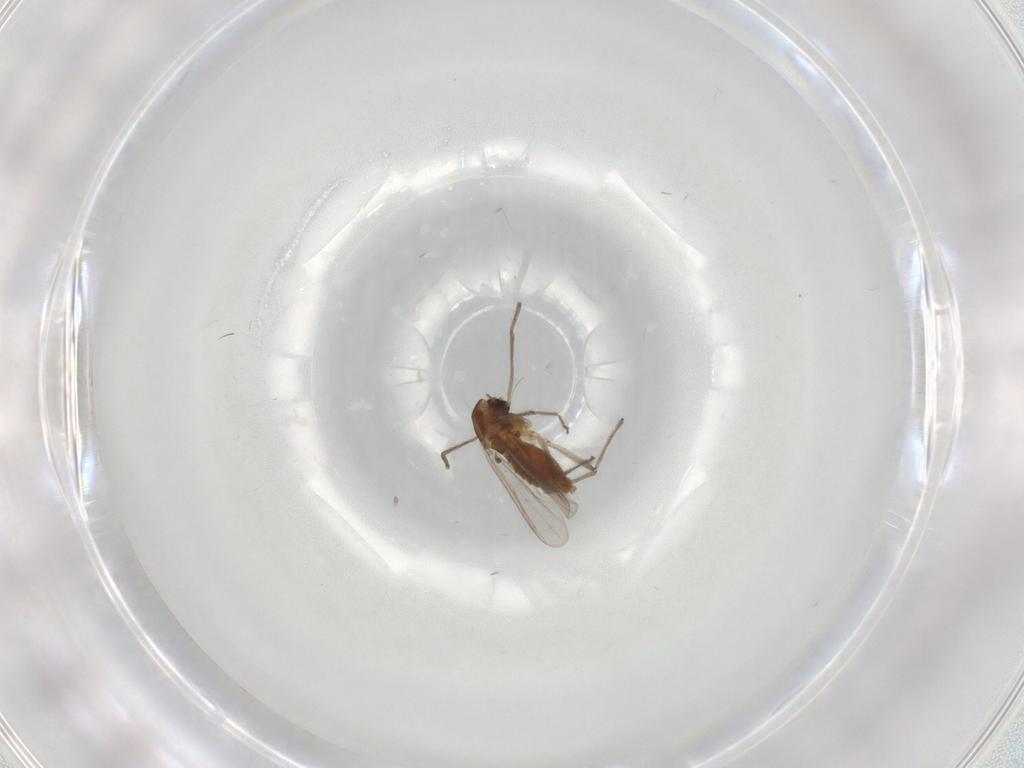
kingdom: Animalia
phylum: Arthropoda
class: Insecta
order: Diptera
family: Chironomidae
